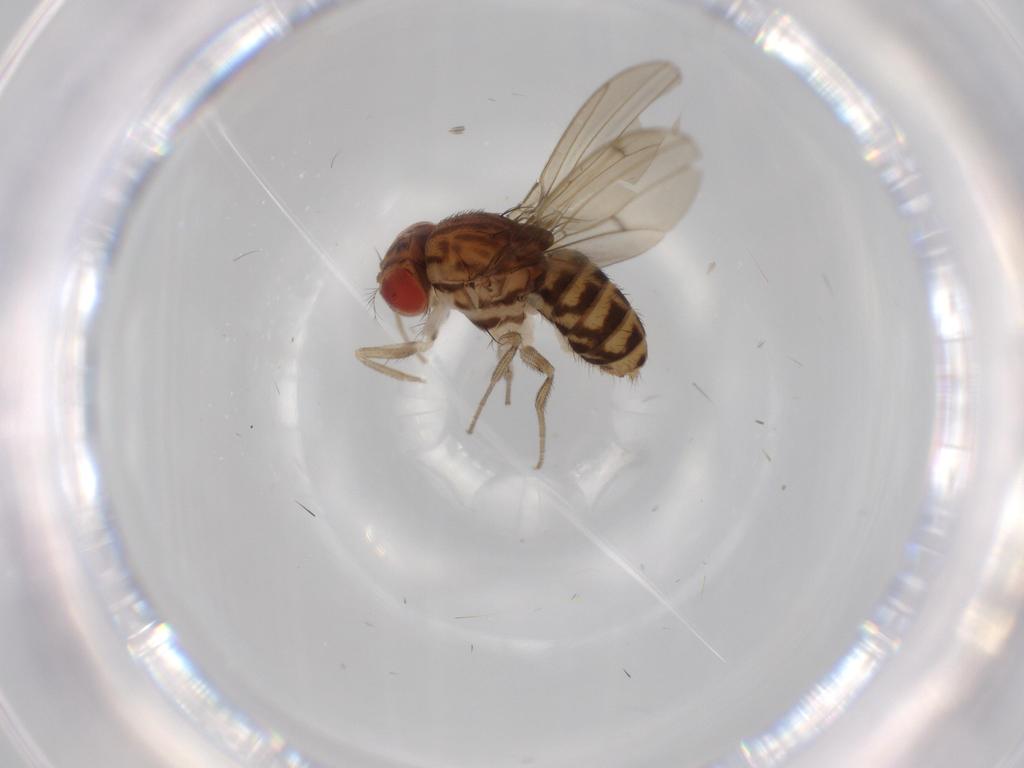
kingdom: Animalia
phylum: Arthropoda
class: Insecta
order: Diptera
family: Drosophilidae
